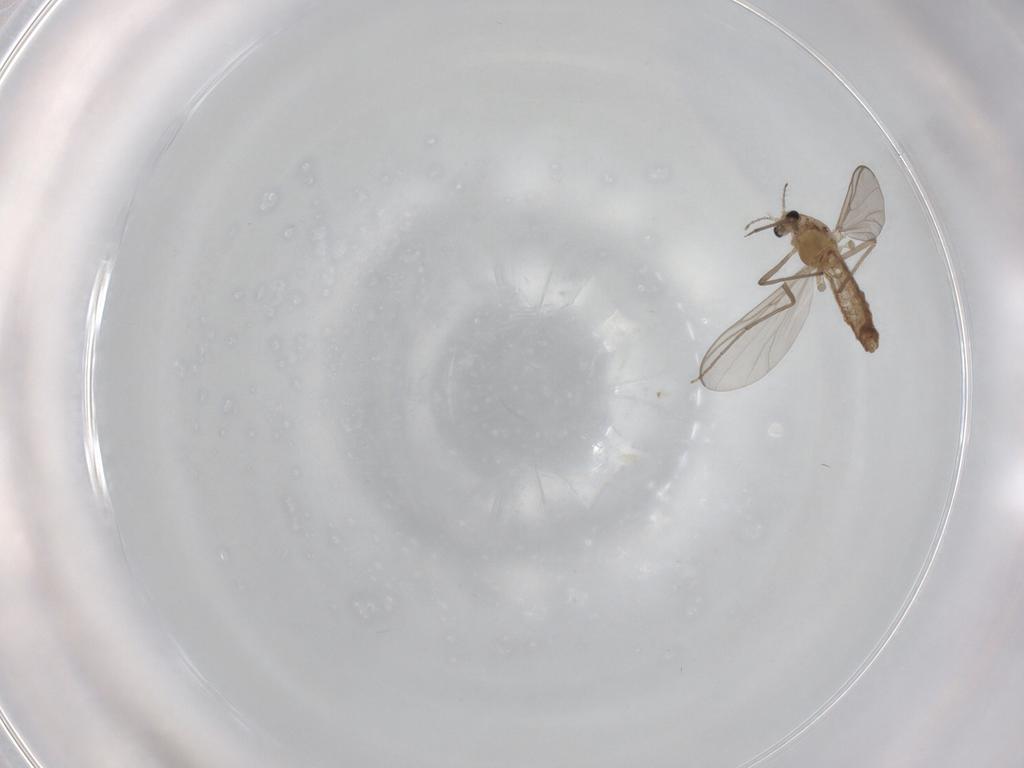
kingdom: Animalia
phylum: Arthropoda
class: Insecta
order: Diptera
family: Chironomidae
